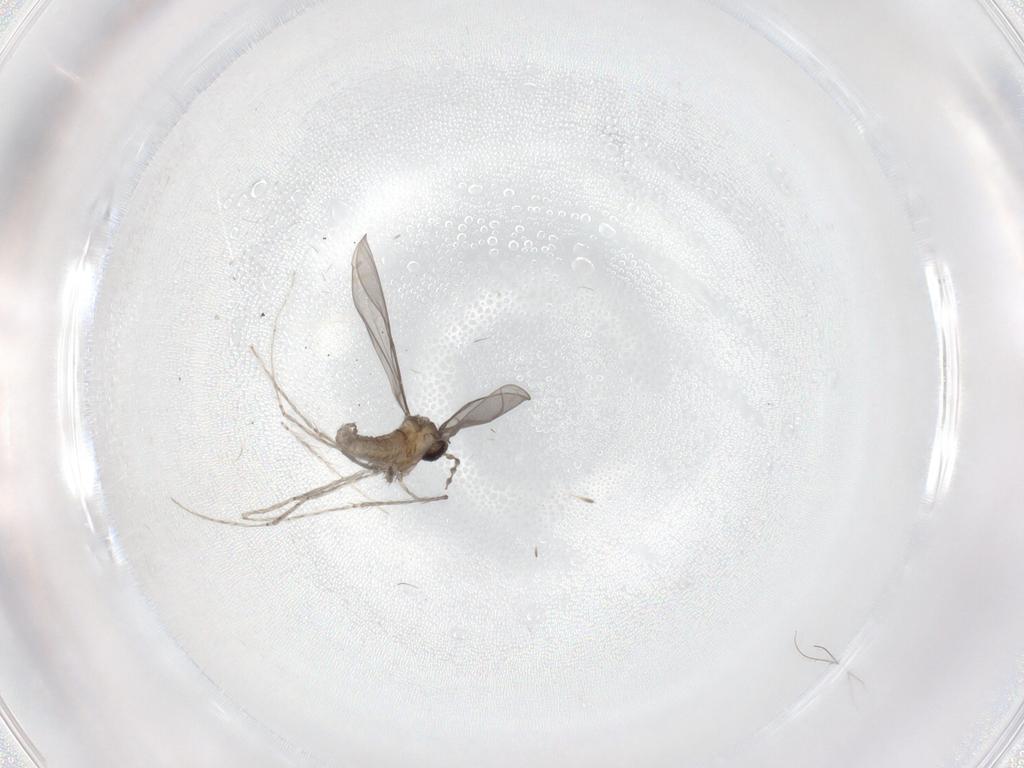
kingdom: Animalia
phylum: Arthropoda
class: Insecta
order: Diptera
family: Cecidomyiidae
